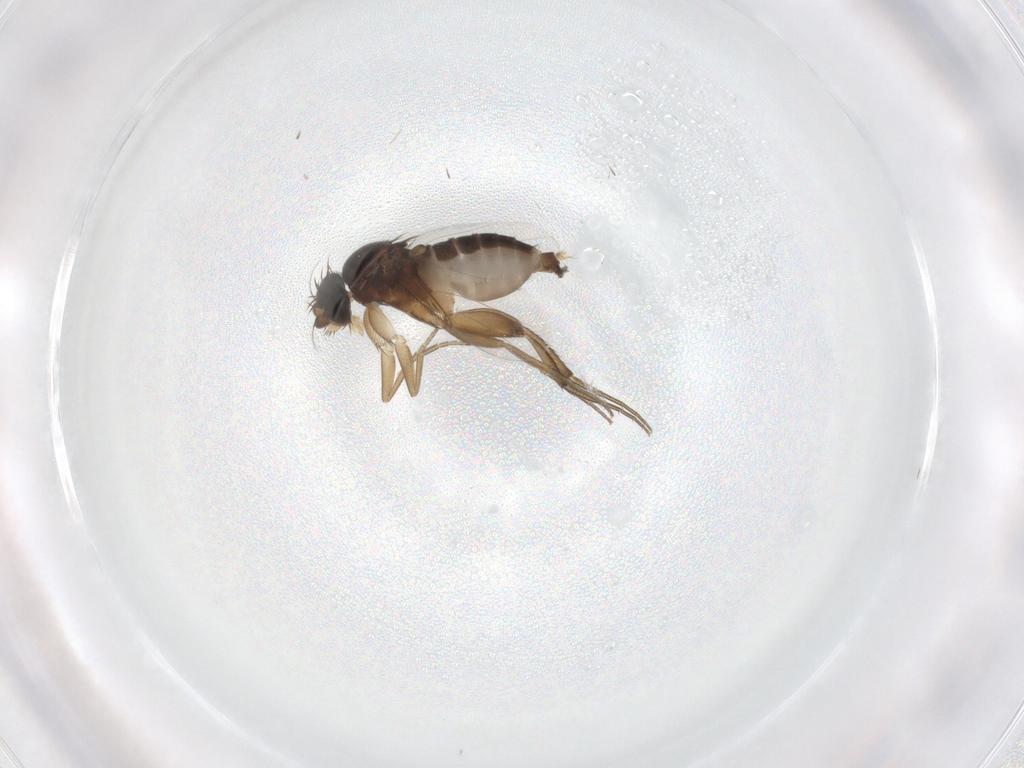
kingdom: Animalia
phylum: Arthropoda
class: Insecta
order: Diptera
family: Phoridae
